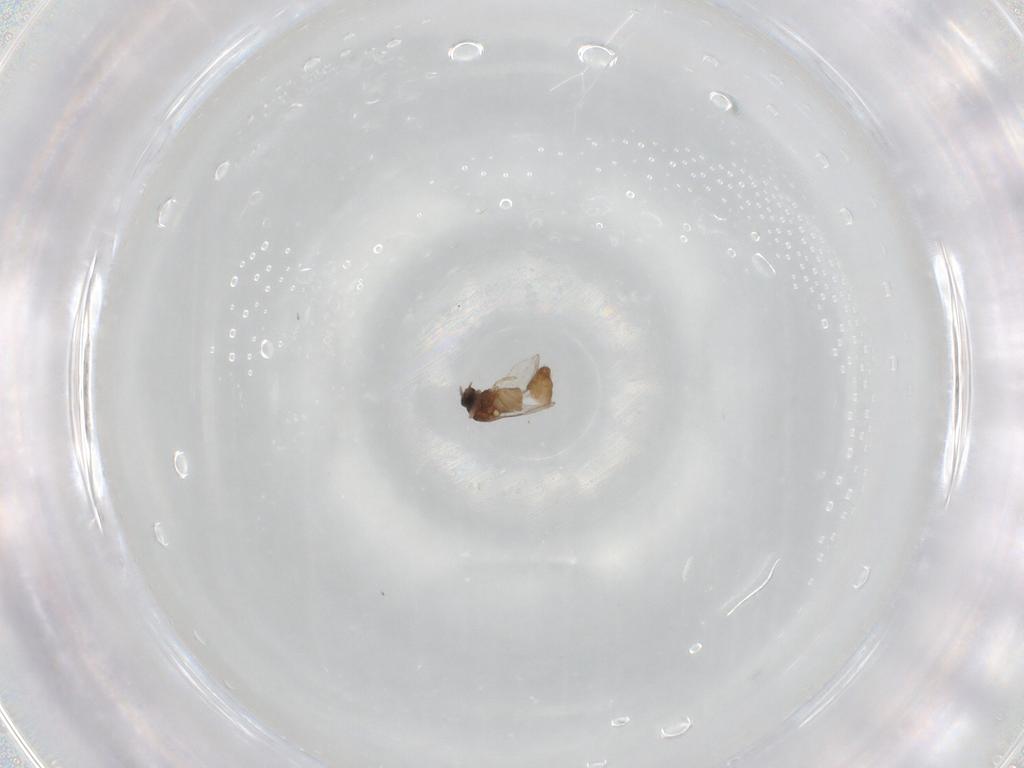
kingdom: Animalia
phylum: Arthropoda
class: Insecta
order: Diptera
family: Ceratopogonidae
